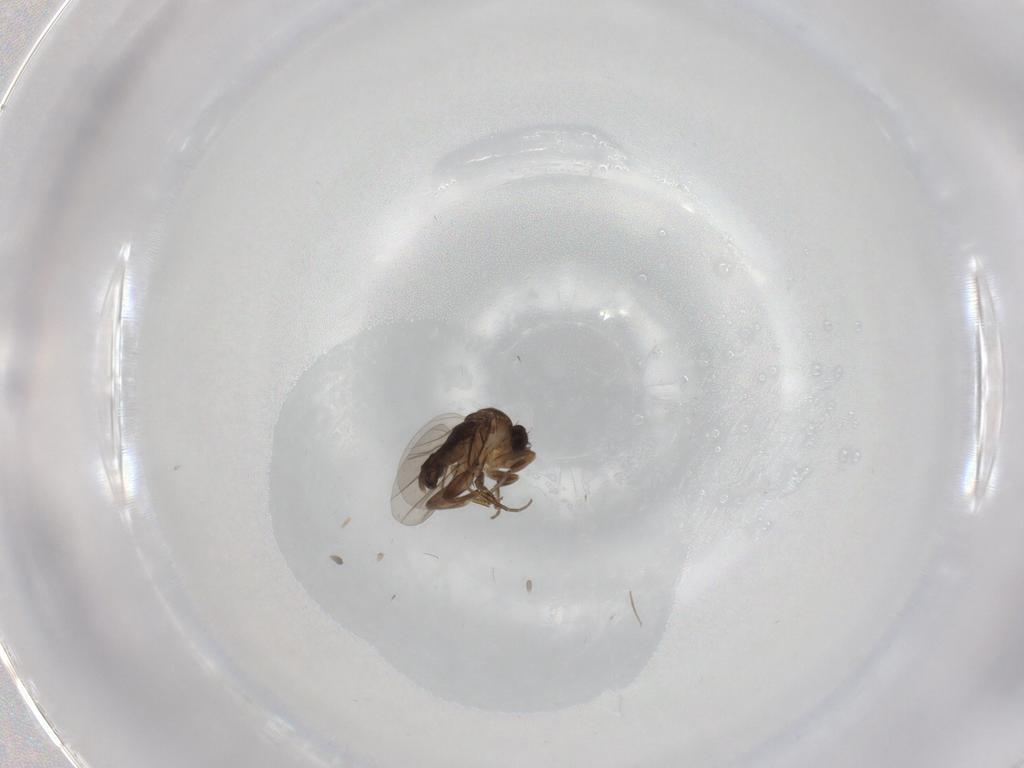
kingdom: Animalia
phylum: Arthropoda
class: Insecta
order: Diptera
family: Phoridae
